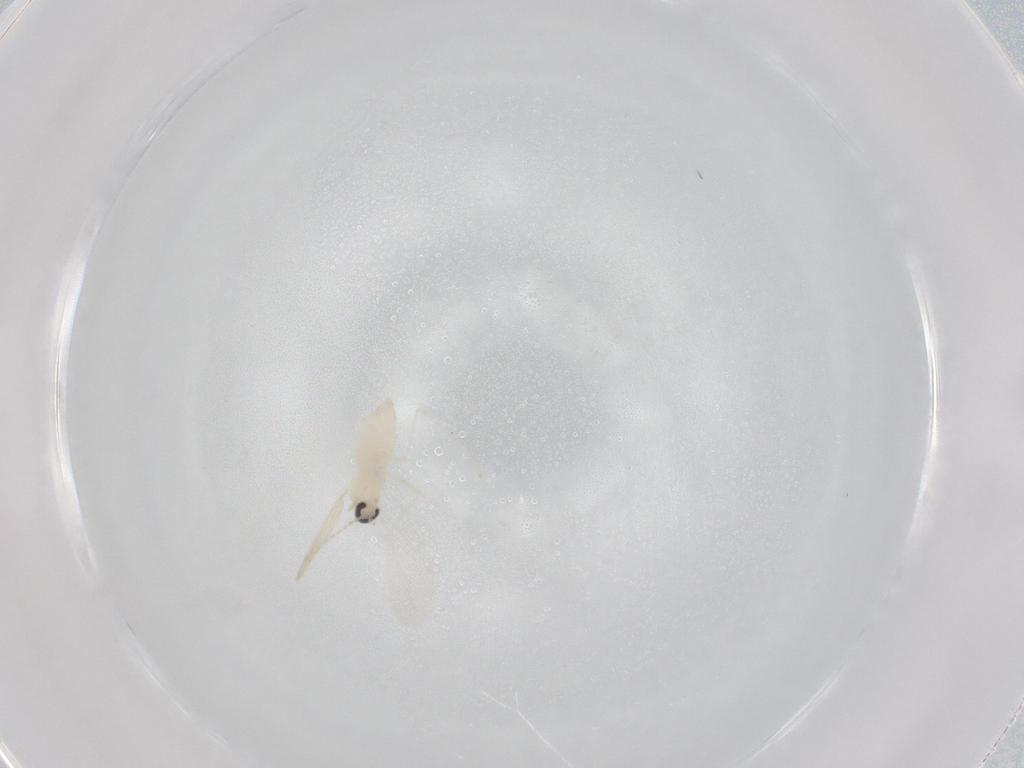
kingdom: Animalia
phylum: Arthropoda
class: Insecta
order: Diptera
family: Cecidomyiidae
